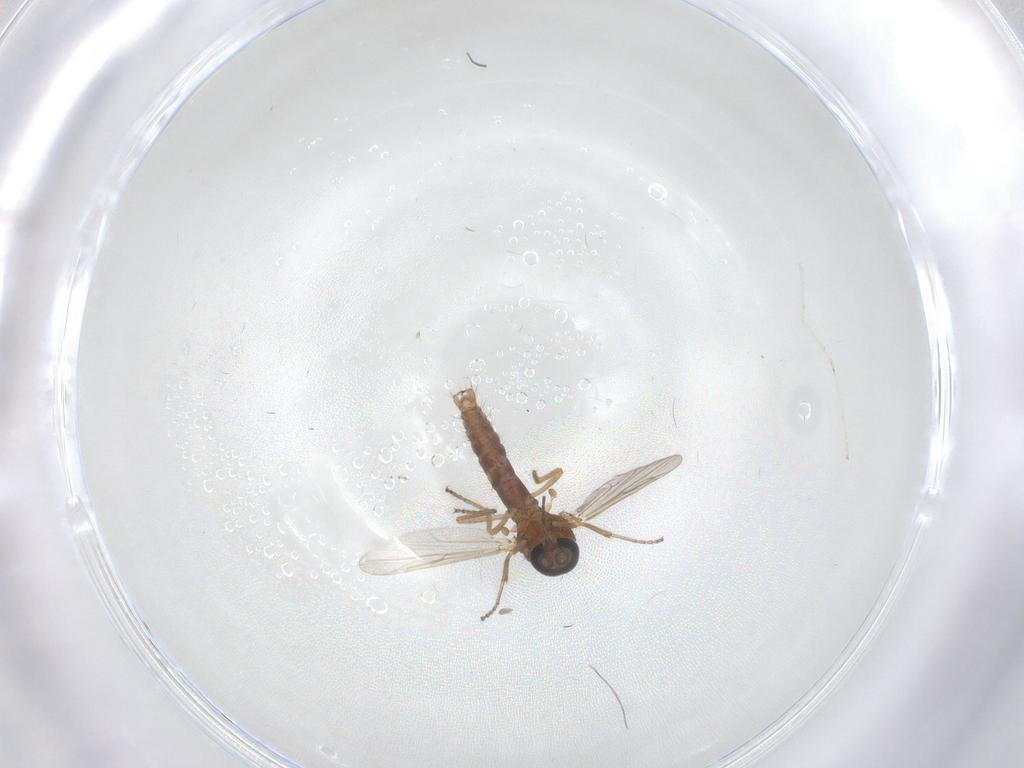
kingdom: Animalia
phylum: Arthropoda
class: Insecta
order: Diptera
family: Ceratopogonidae
